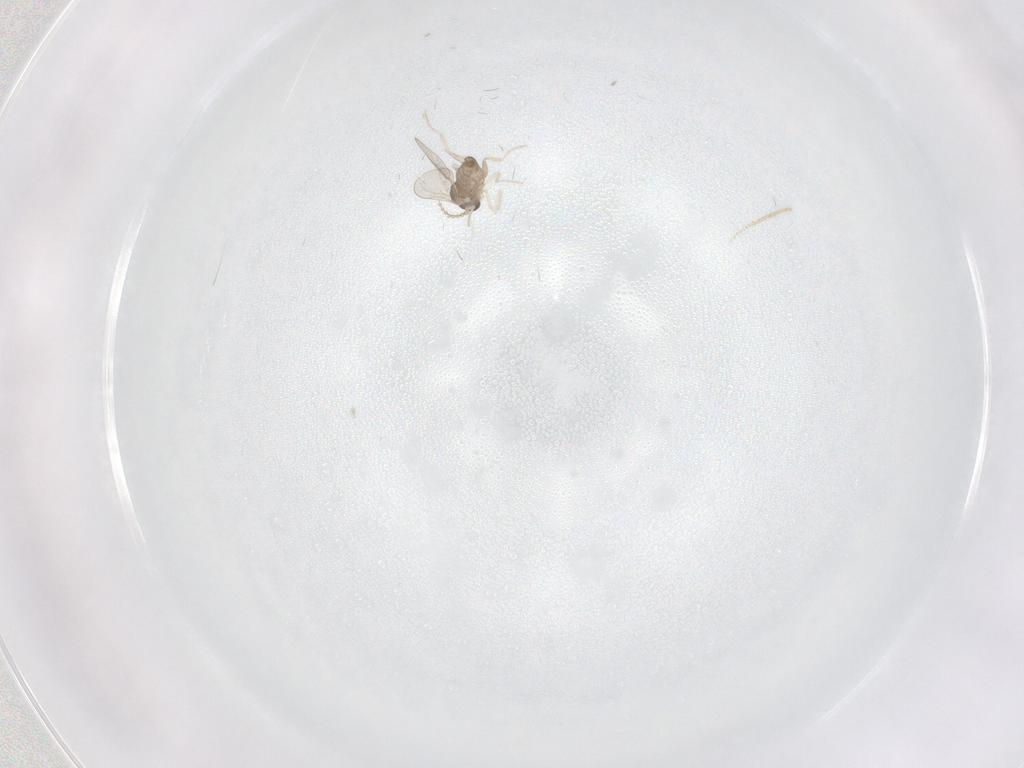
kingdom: Animalia
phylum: Arthropoda
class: Insecta
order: Diptera
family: Cecidomyiidae
